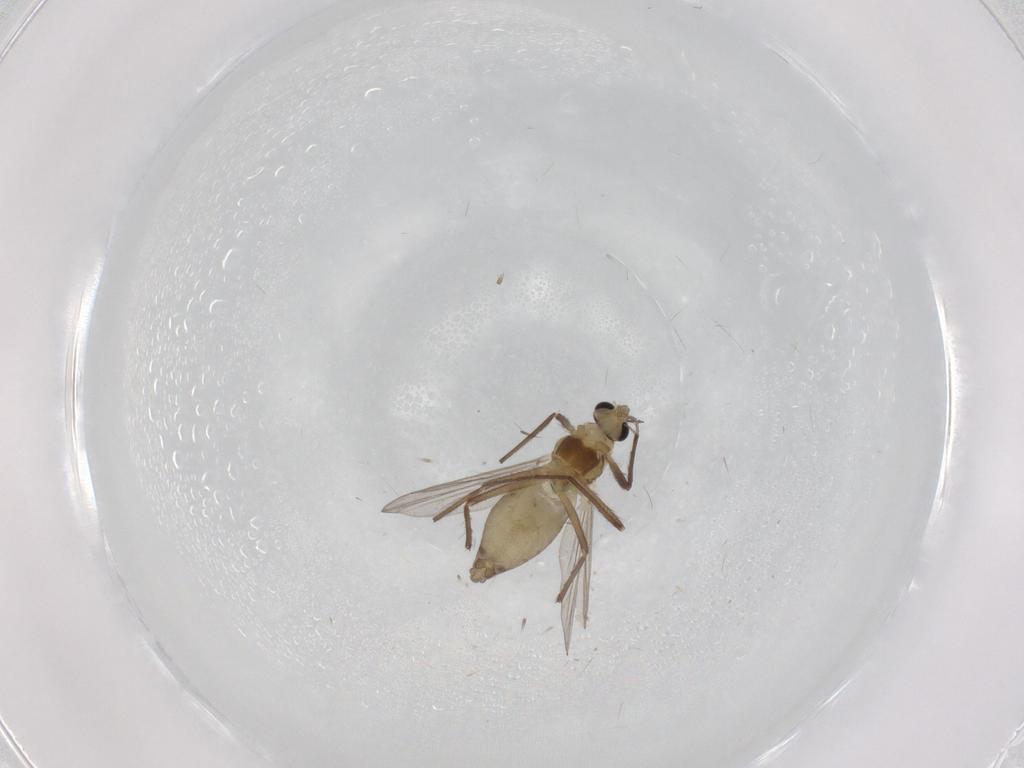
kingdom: Animalia
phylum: Arthropoda
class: Insecta
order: Diptera
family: Chironomidae
